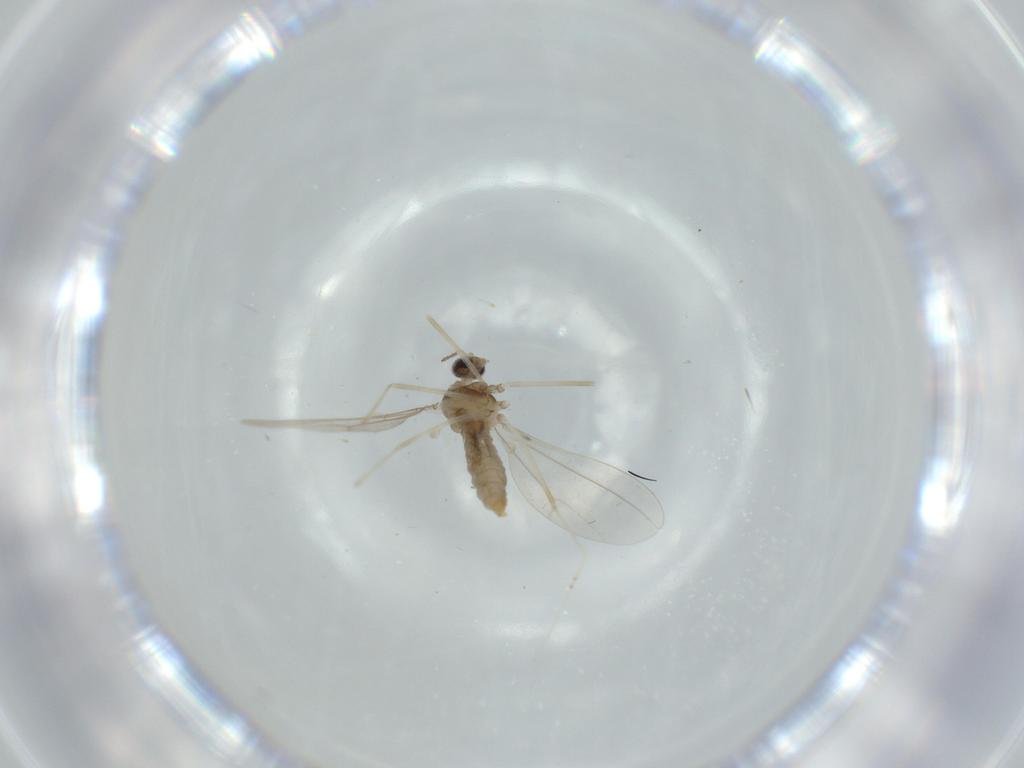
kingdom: Animalia
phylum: Arthropoda
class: Insecta
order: Diptera
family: Cecidomyiidae
